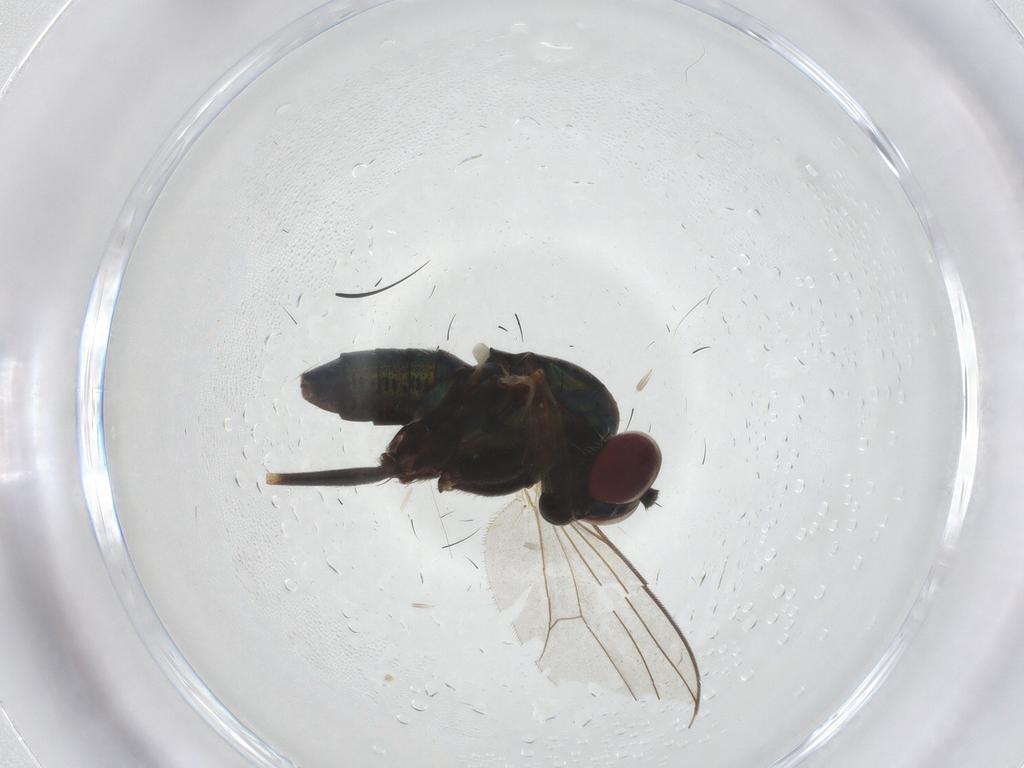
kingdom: Animalia
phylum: Arthropoda
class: Insecta
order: Diptera
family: Dolichopodidae
